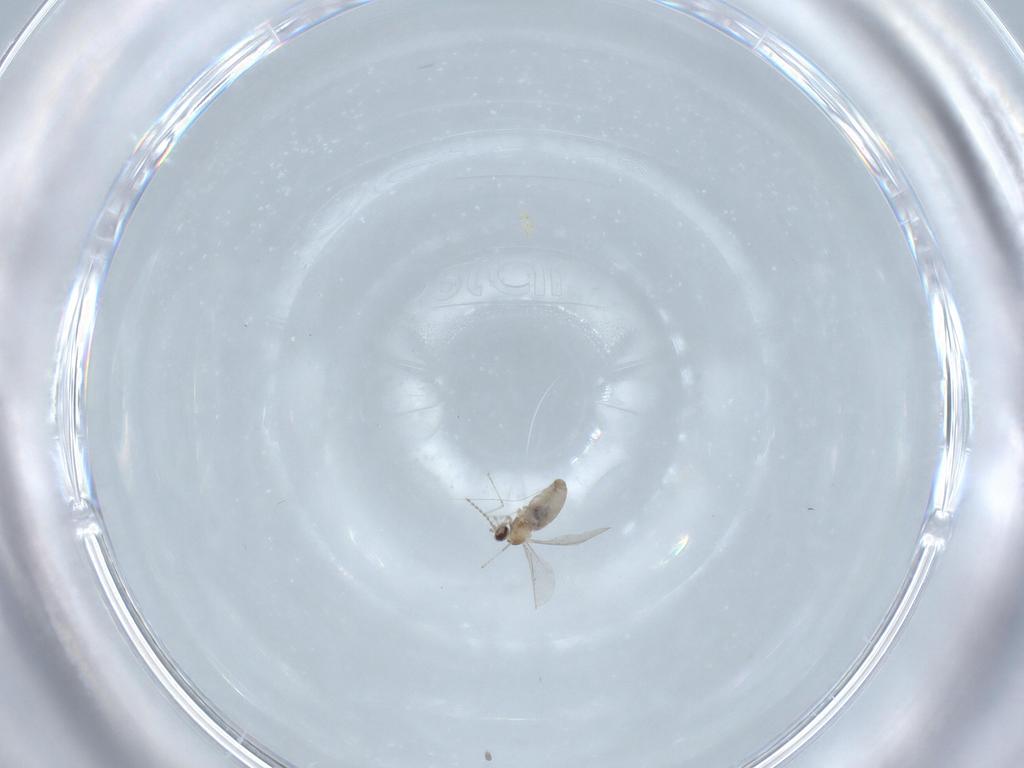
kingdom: Animalia
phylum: Arthropoda
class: Insecta
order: Diptera
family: Cecidomyiidae
